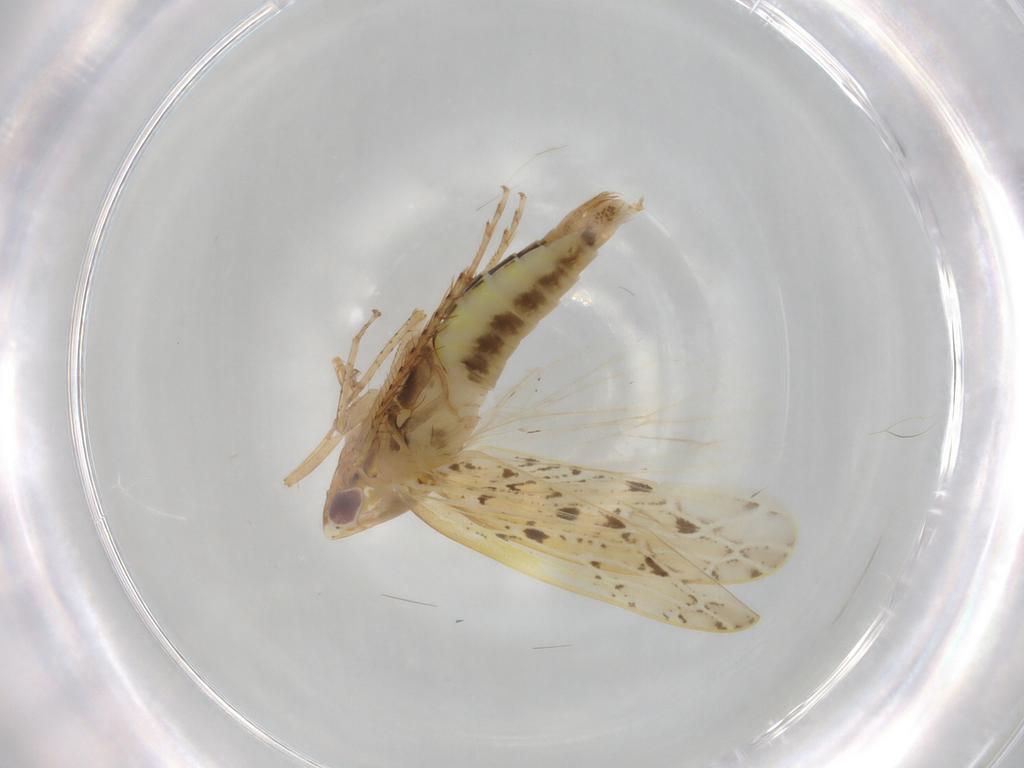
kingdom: Animalia
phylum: Arthropoda
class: Insecta
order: Hemiptera
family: Cicadellidae
